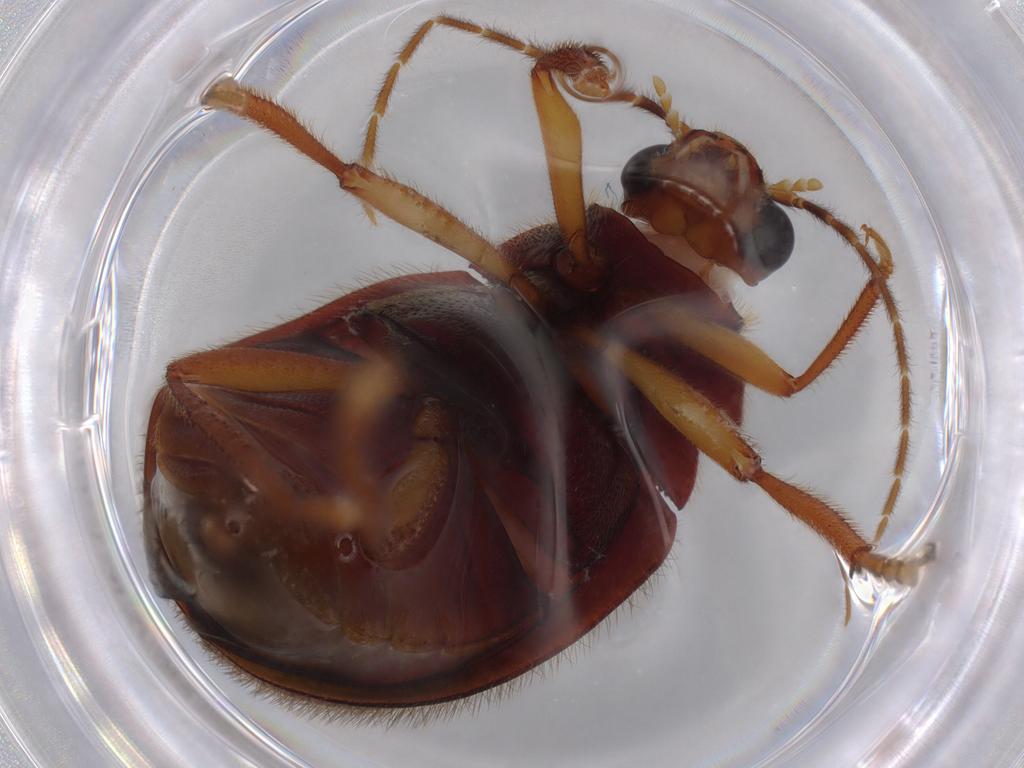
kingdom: Animalia
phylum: Arthropoda
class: Insecta
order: Coleoptera
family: Ptilodactylidae
